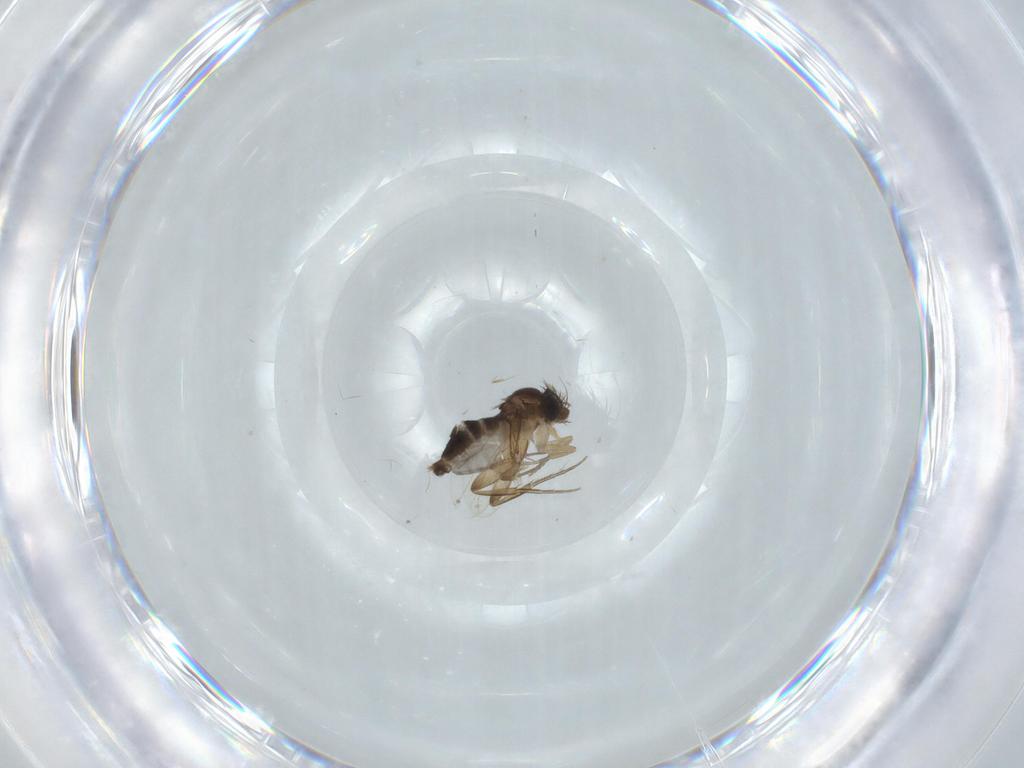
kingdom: Animalia
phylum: Arthropoda
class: Insecta
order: Diptera
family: Phoridae
